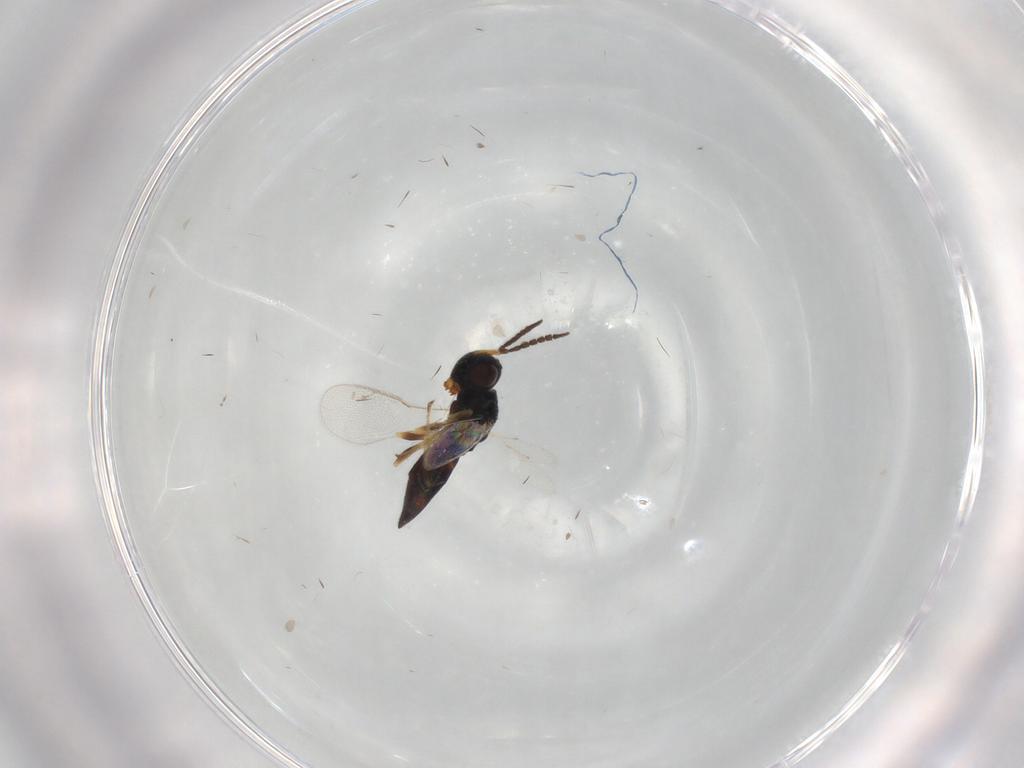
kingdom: Animalia
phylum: Arthropoda
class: Insecta
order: Hymenoptera
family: Pteromalidae
